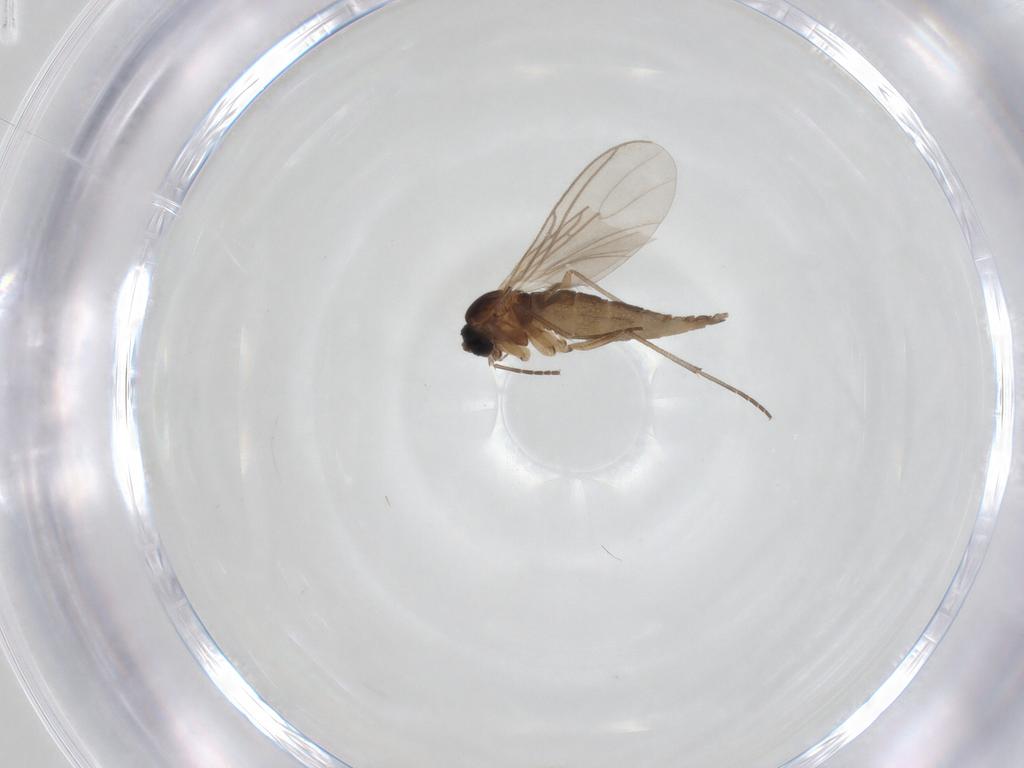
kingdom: Animalia
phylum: Arthropoda
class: Insecta
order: Diptera
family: Sciaridae
